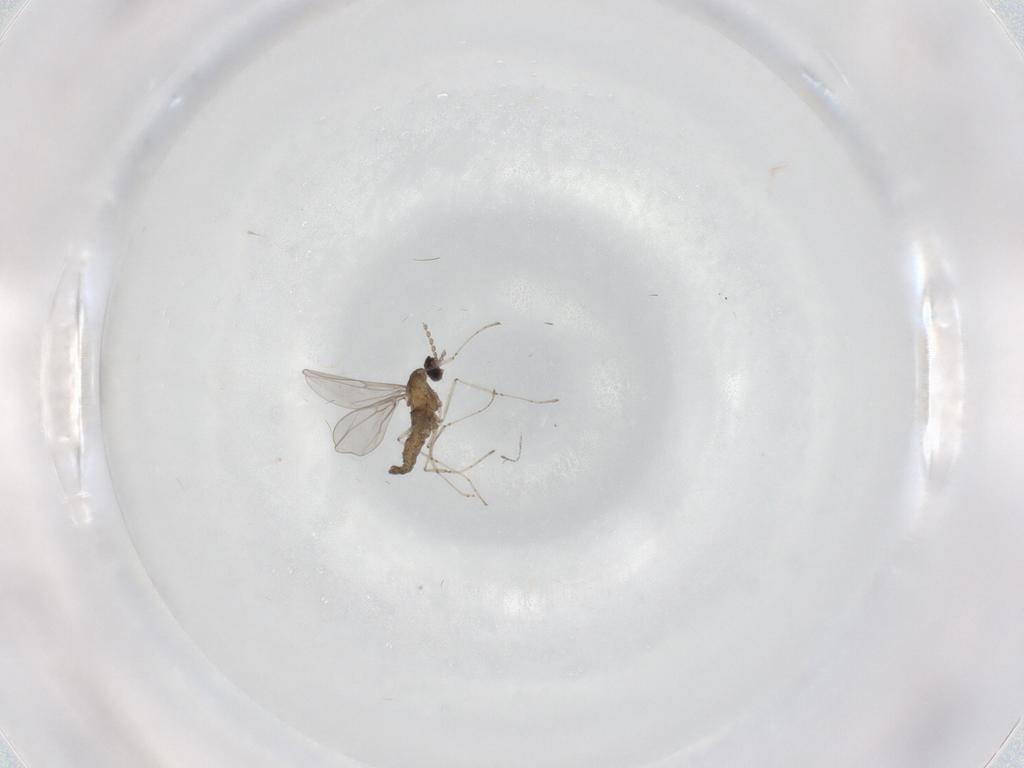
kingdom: Animalia
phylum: Arthropoda
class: Insecta
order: Diptera
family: Cecidomyiidae
